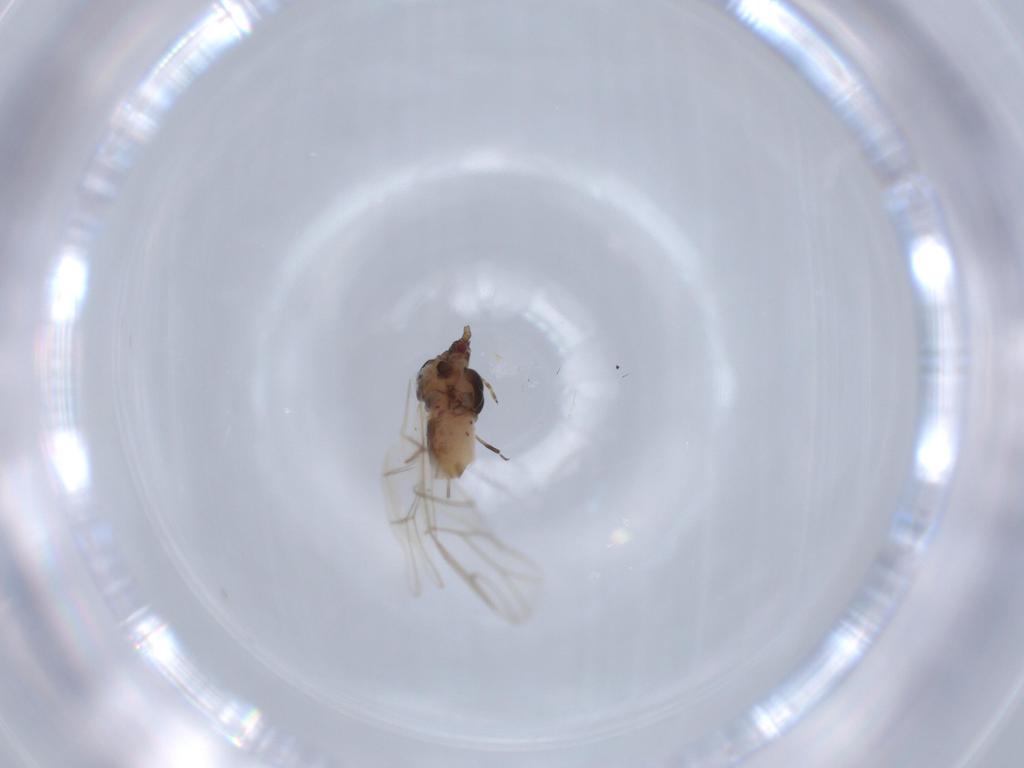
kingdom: Animalia
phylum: Arthropoda
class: Insecta
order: Hemiptera
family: Aphididae
